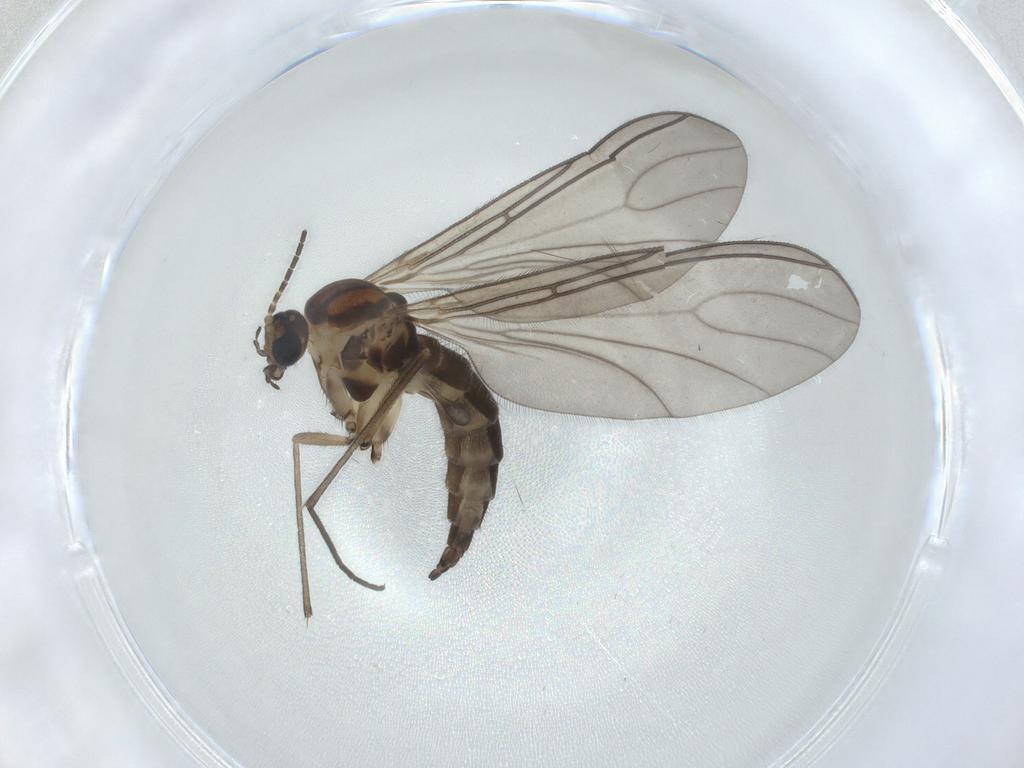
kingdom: Animalia
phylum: Arthropoda
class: Insecta
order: Diptera
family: Sciaridae
